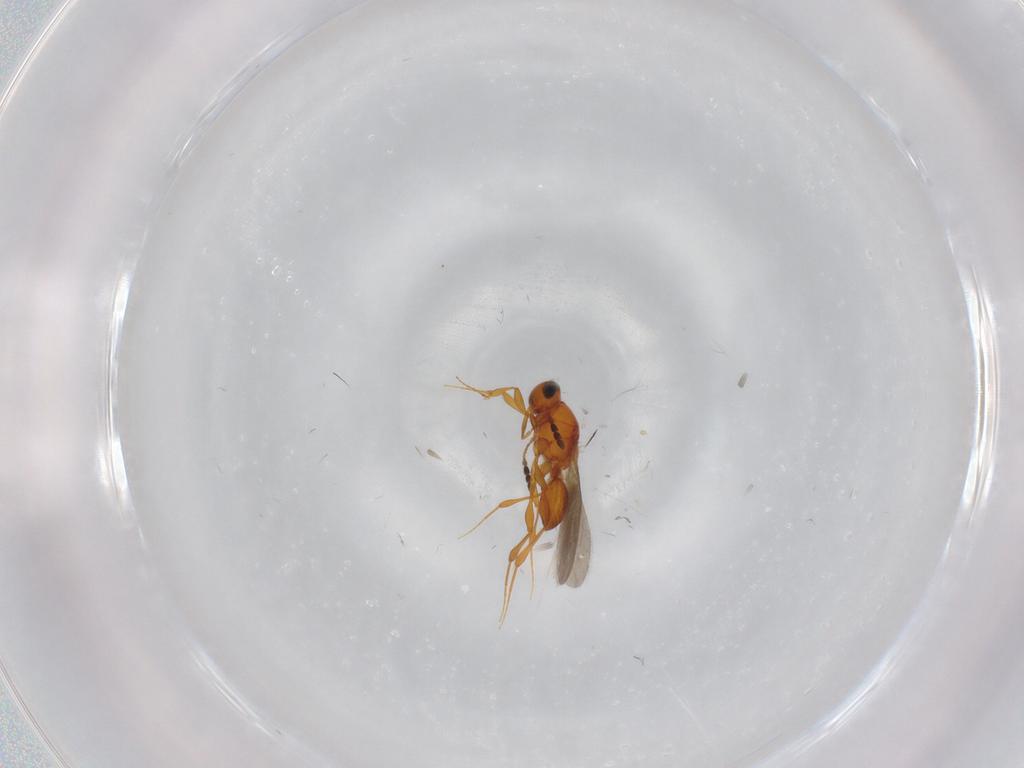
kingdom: Animalia
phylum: Arthropoda
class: Insecta
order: Hymenoptera
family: Platygastridae
